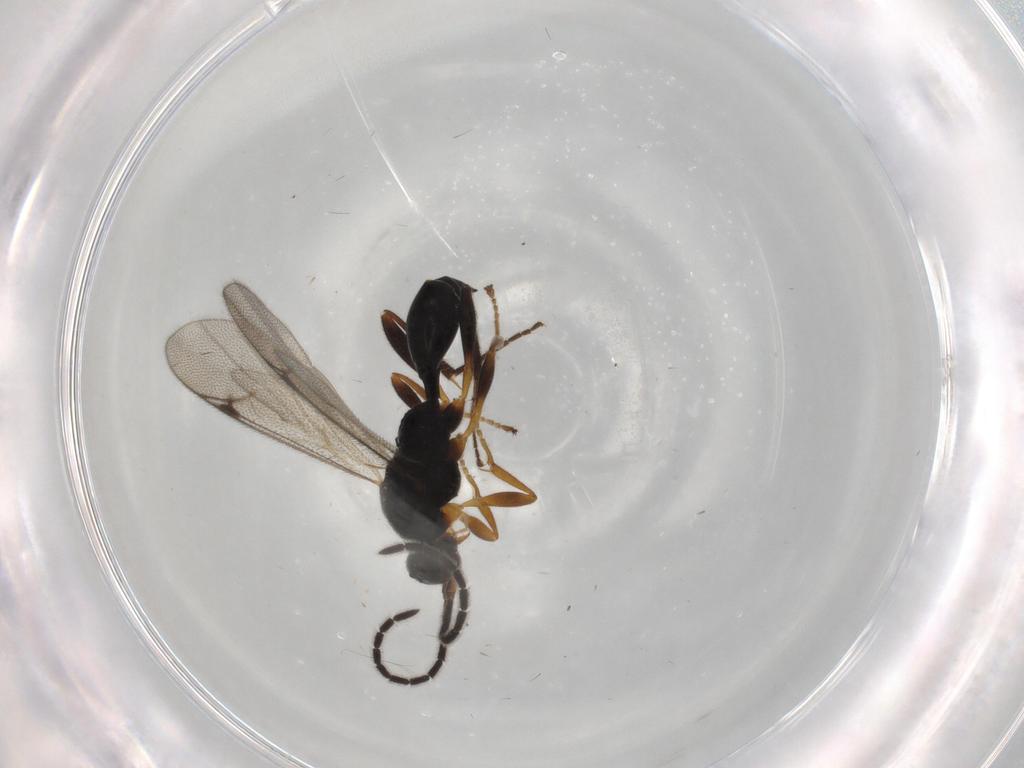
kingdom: Animalia
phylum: Arthropoda
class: Insecta
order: Hymenoptera
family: Proctotrupidae
